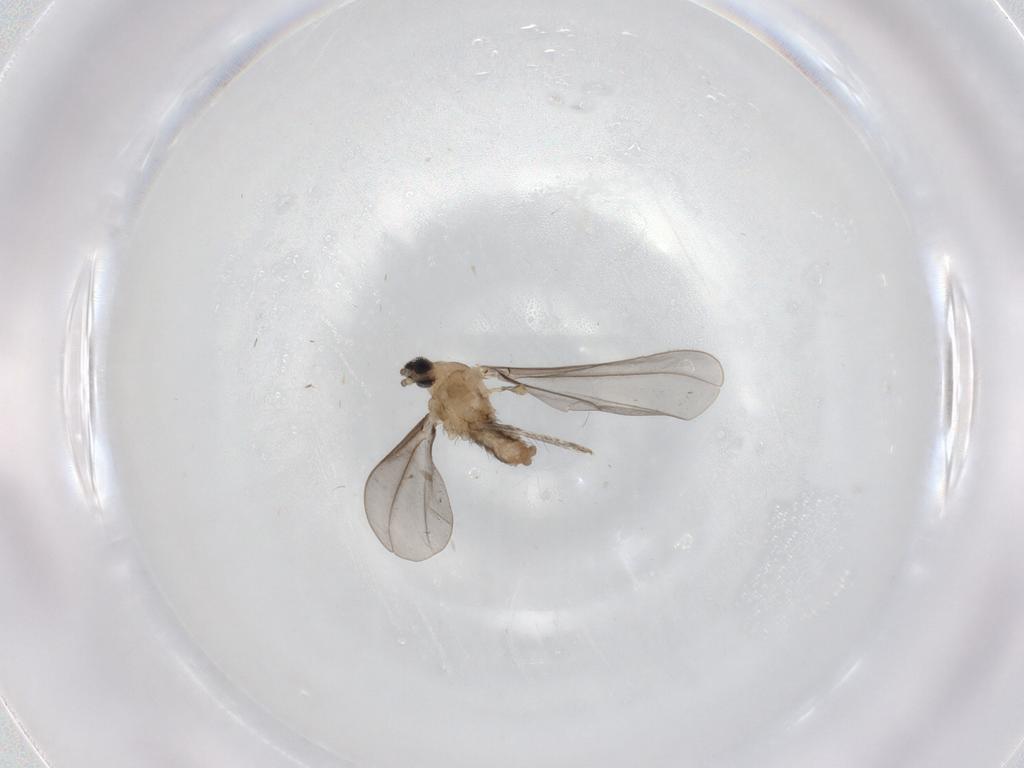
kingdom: Animalia
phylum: Arthropoda
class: Insecta
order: Diptera
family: Cecidomyiidae
